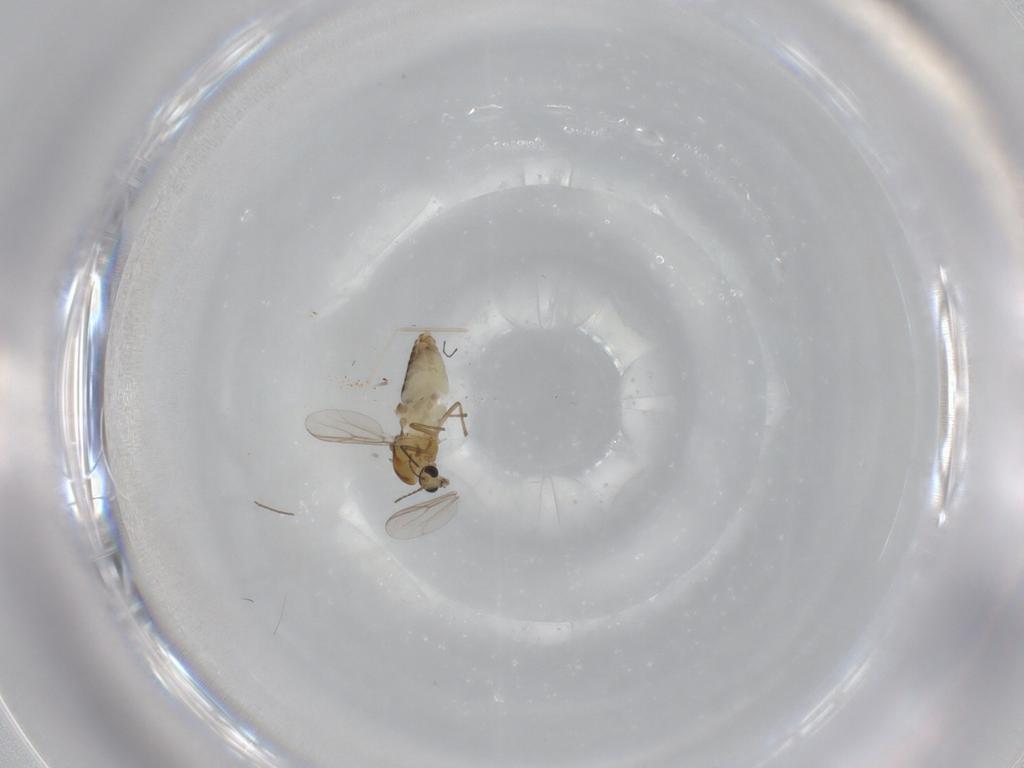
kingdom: Animalia
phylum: Arthropoda
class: Insecta
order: Diptera
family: Chironomidae
